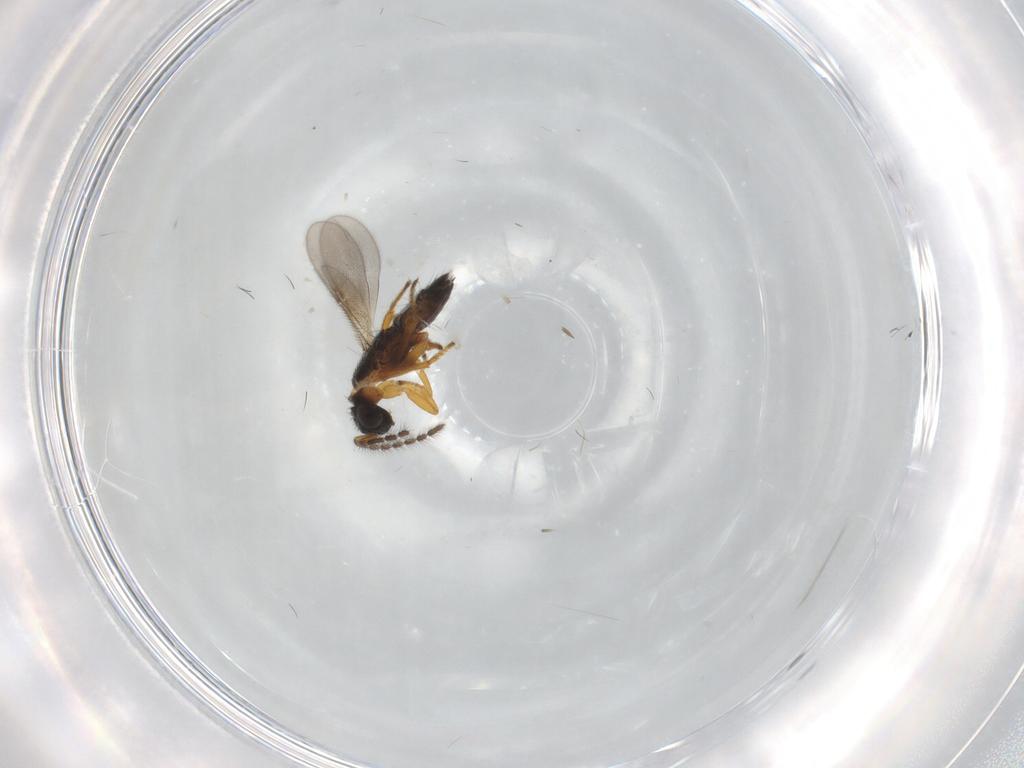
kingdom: Animalia
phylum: Arthropoda
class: Insecta
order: Hymenoptera
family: Encyrtidae
